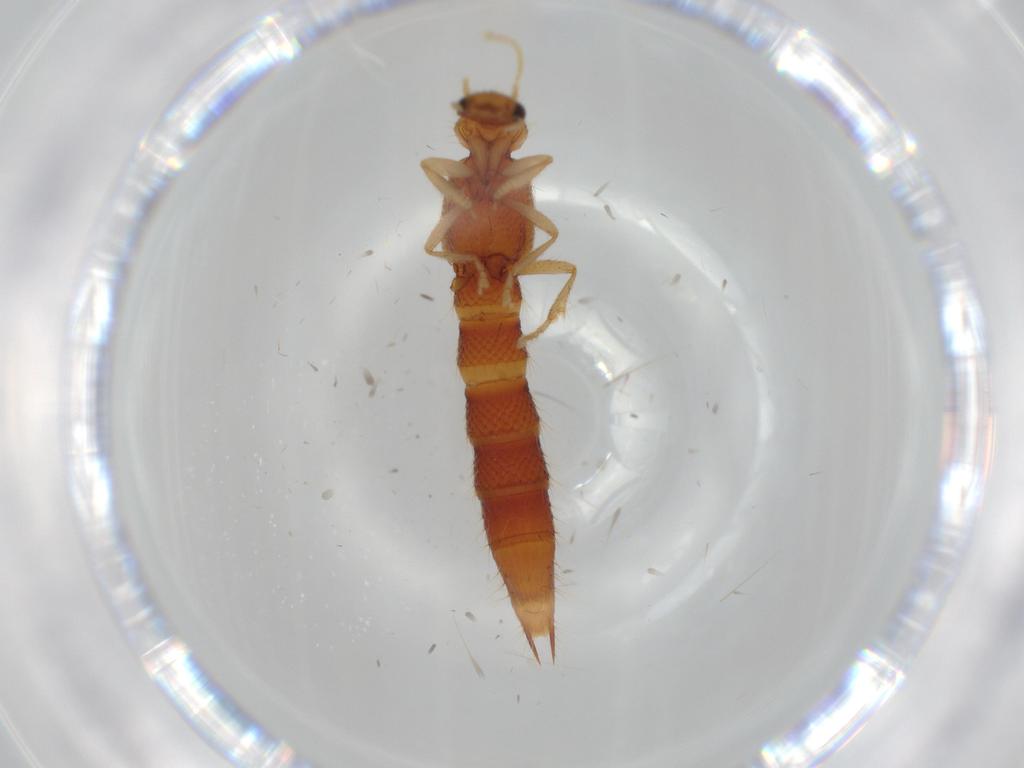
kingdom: Animalia
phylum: Arthropoda
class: Insecta
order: Coleoptera
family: Staphylinidae
